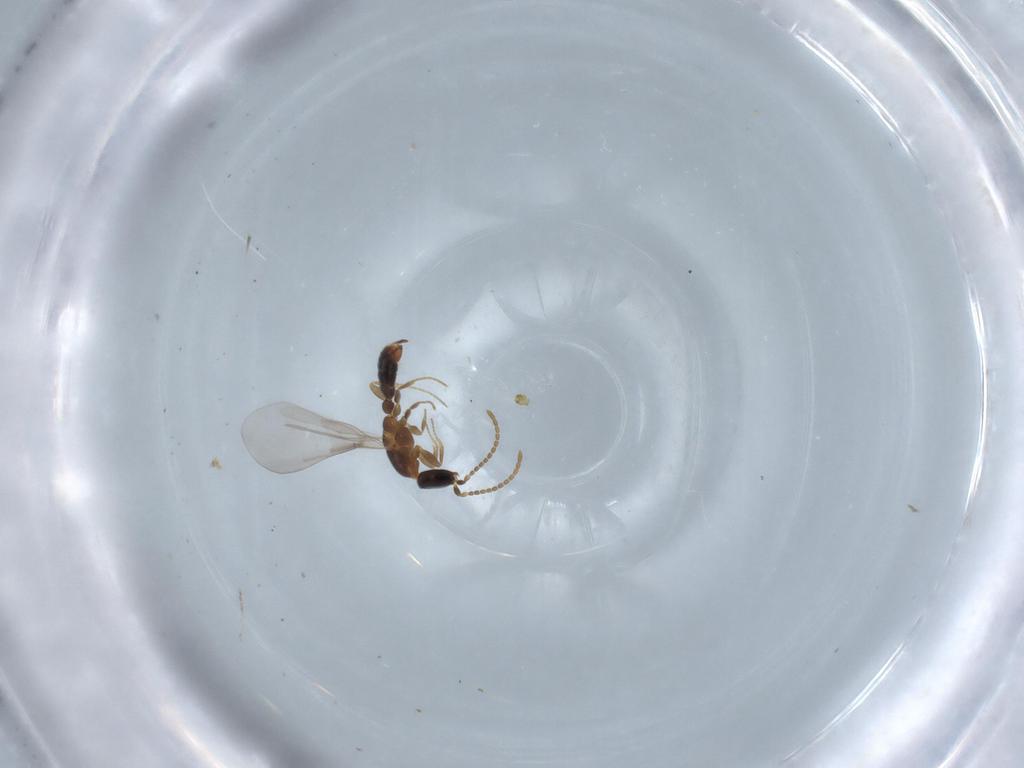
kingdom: Animalia
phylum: Arthropoda
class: Insecta
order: Hymenoptera
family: Formicidae
